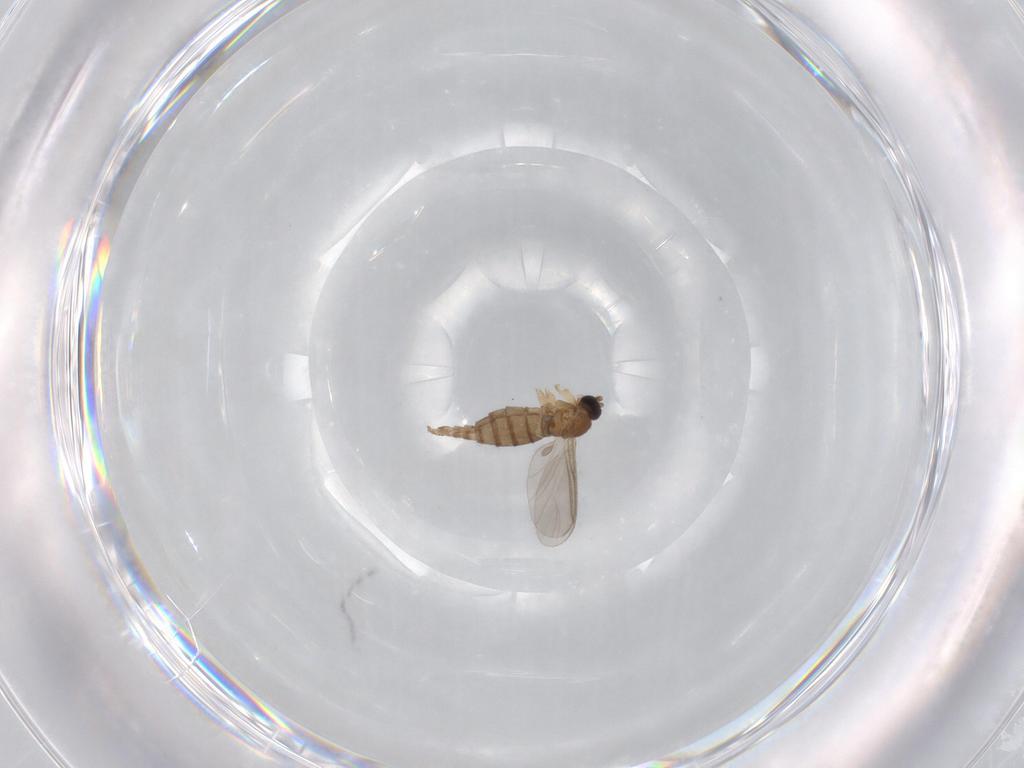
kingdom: Animalia
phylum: Arthropoda
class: Insecta
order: Diptera
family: Sciaridae
